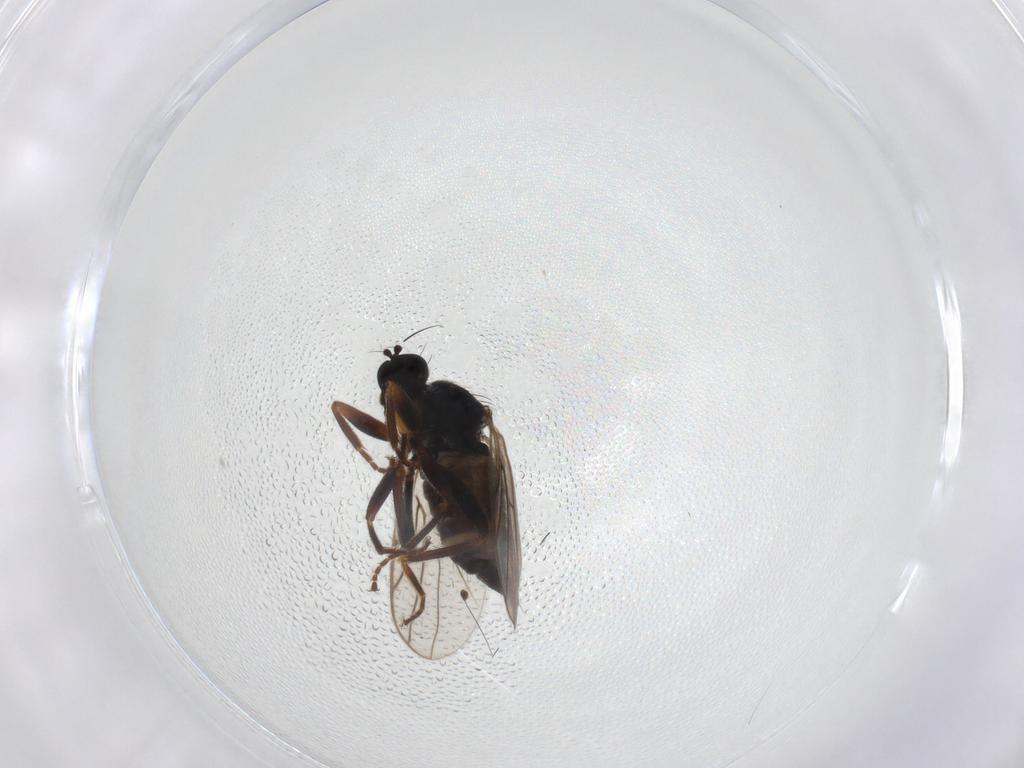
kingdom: Animalia
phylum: Arthropoda
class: Insecta
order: Diptera
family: Hybotidae
